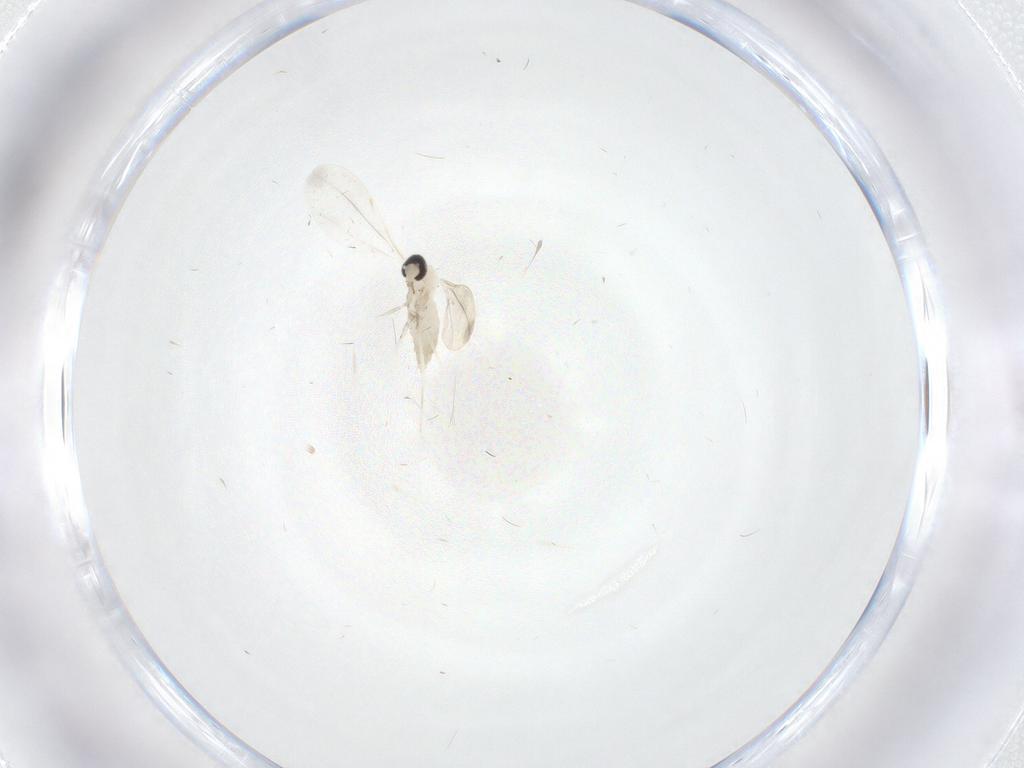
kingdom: Animalia
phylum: Arthropoda
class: Insecta
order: Diptera
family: Cecidomyiidae
